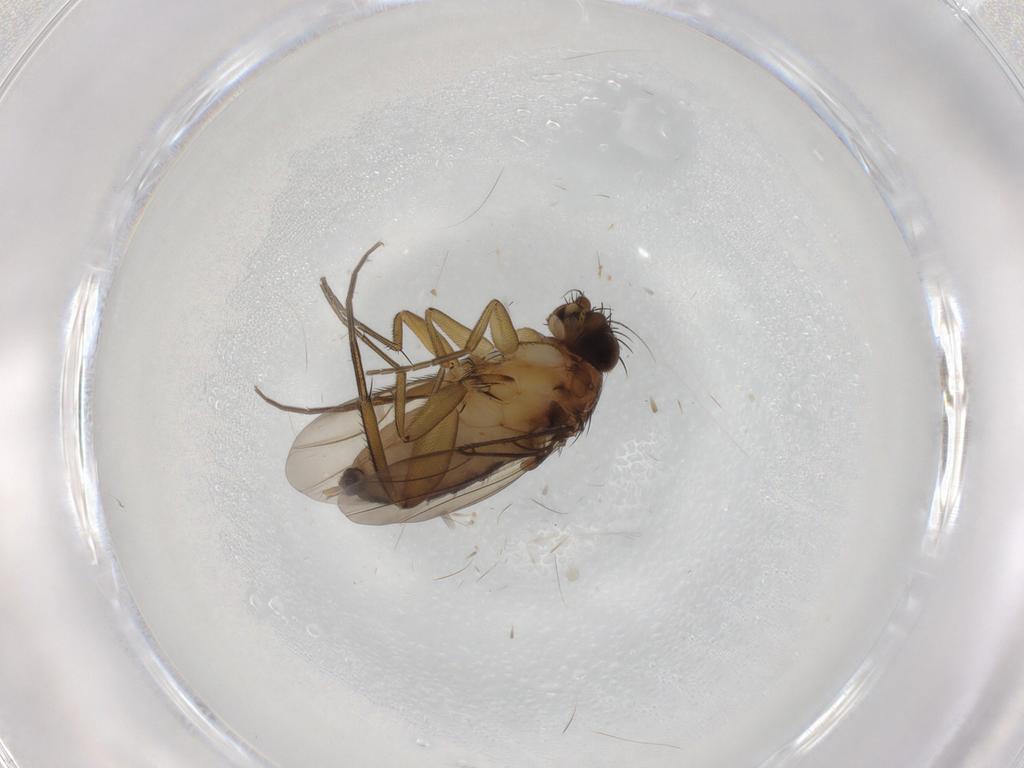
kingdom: Animalia
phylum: Arthropoda
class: Insecta
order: Diptera
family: Phoridae
